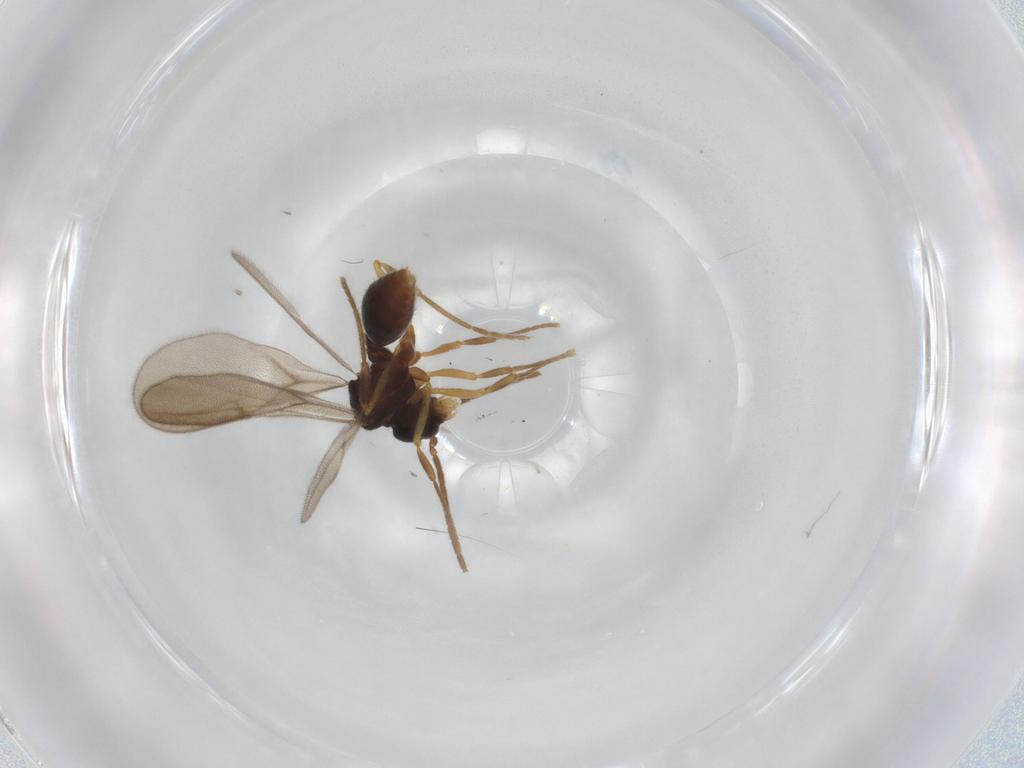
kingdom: Animalia
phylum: Arthropoda
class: Insecta
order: Hymenoptera
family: Formicidae
